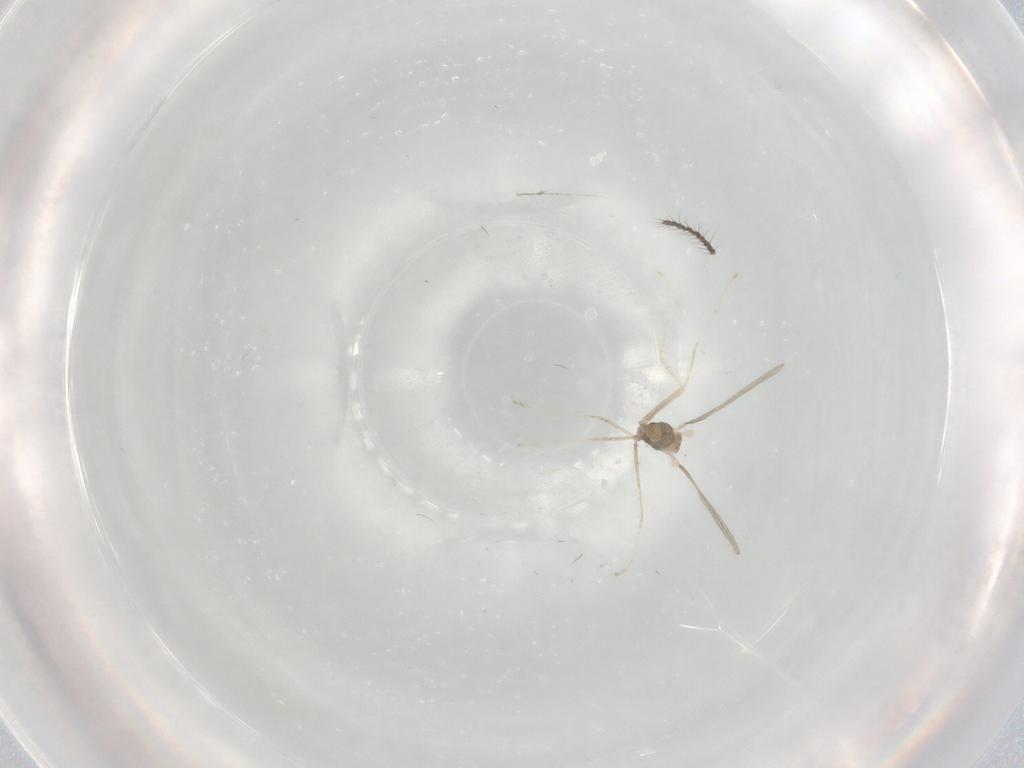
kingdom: Animalia
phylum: Arthropoda
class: Insecta
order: Diptera
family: Cecidomyiidae
